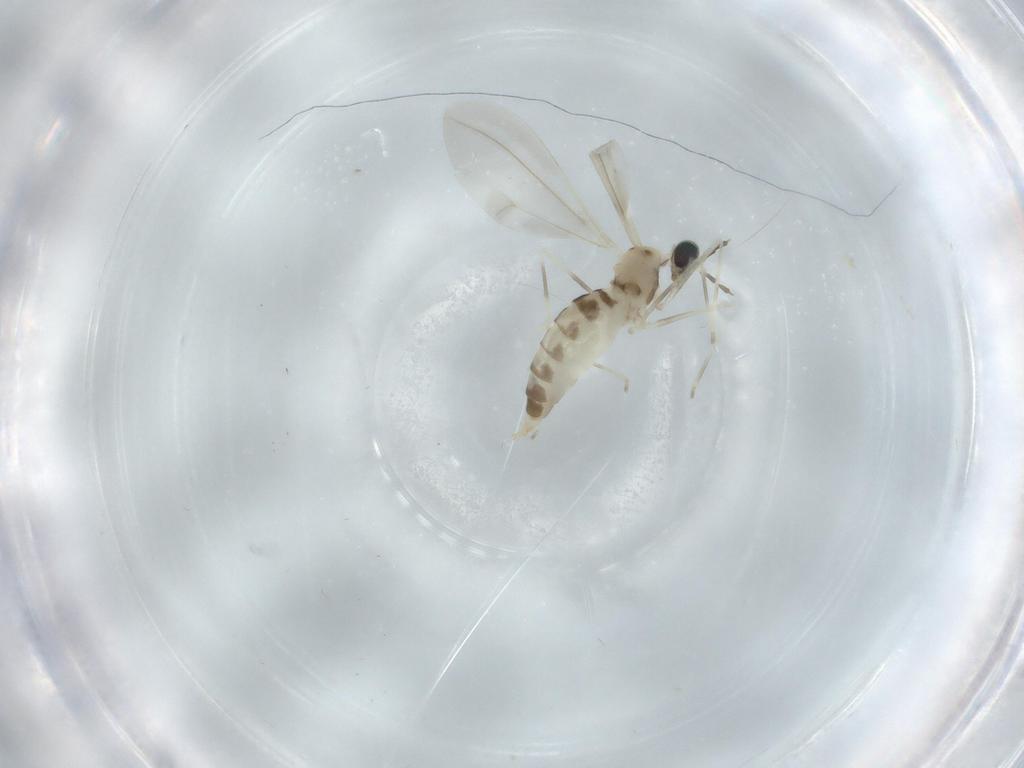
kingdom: Animalia
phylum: Arthropoda
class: Insecta
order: Diptera
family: Cecidomyiidae
